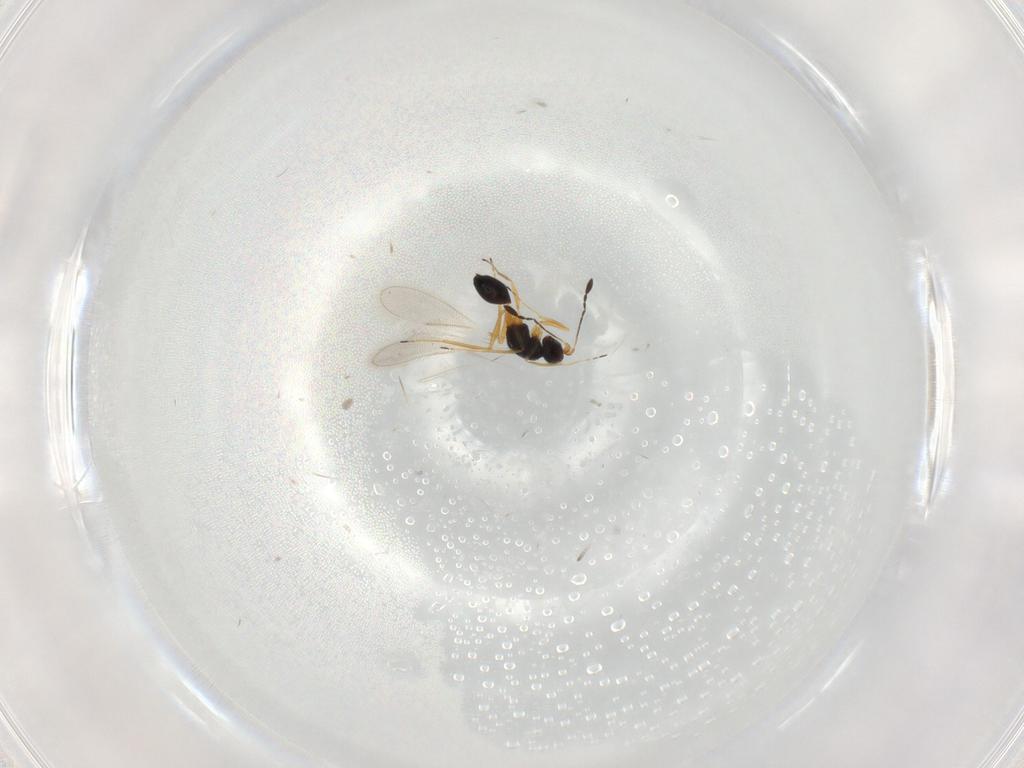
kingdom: Animalia
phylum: Arthropoda
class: Insecta
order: Hymenoptera
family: Mymaridae
